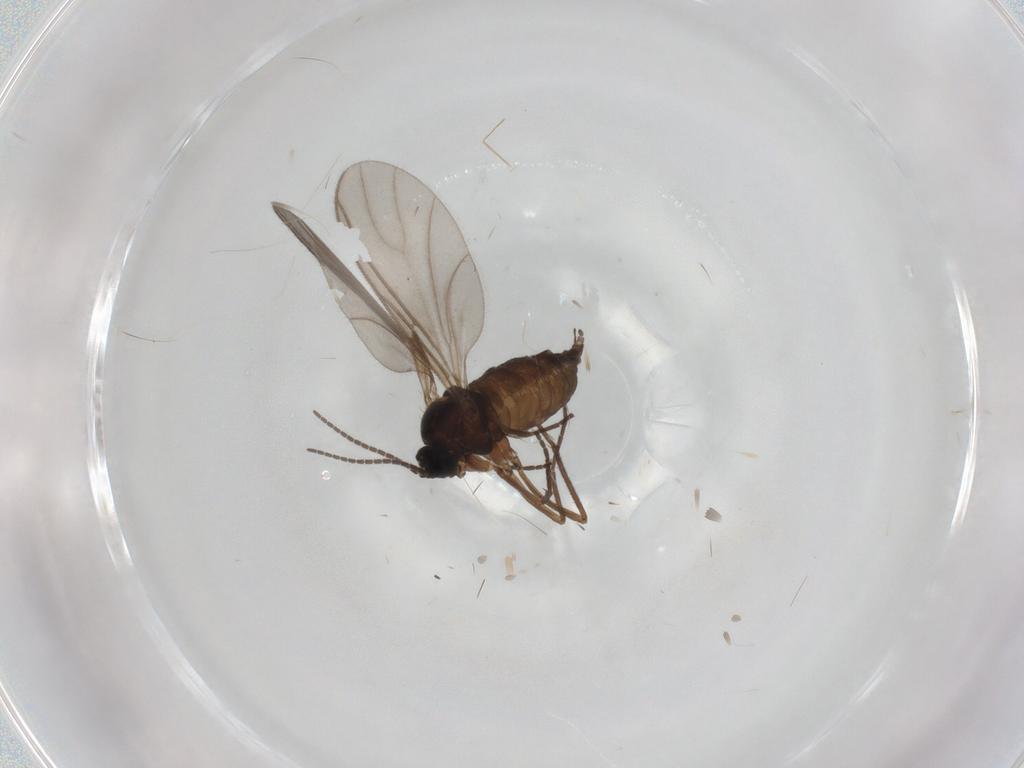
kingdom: Animalia
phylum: Arthropoda
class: Insecta
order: Diptera
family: Sciaridae
